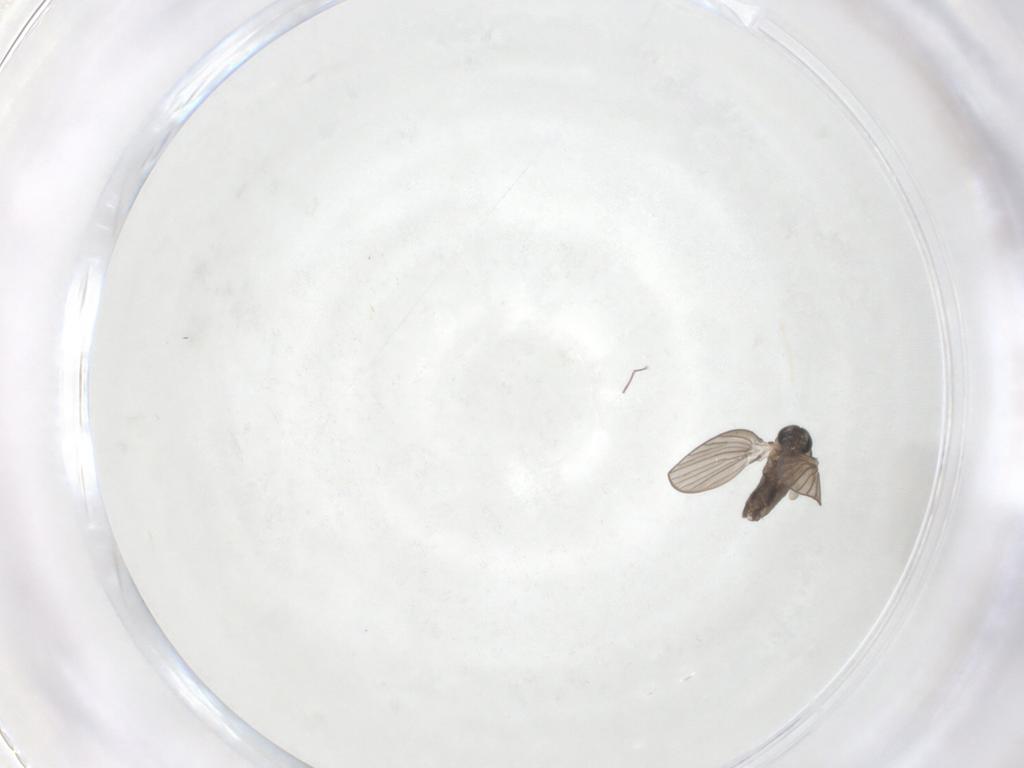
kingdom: Animalia
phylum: Arthropoda
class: Insecta
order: Diptera
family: Psychodidae
